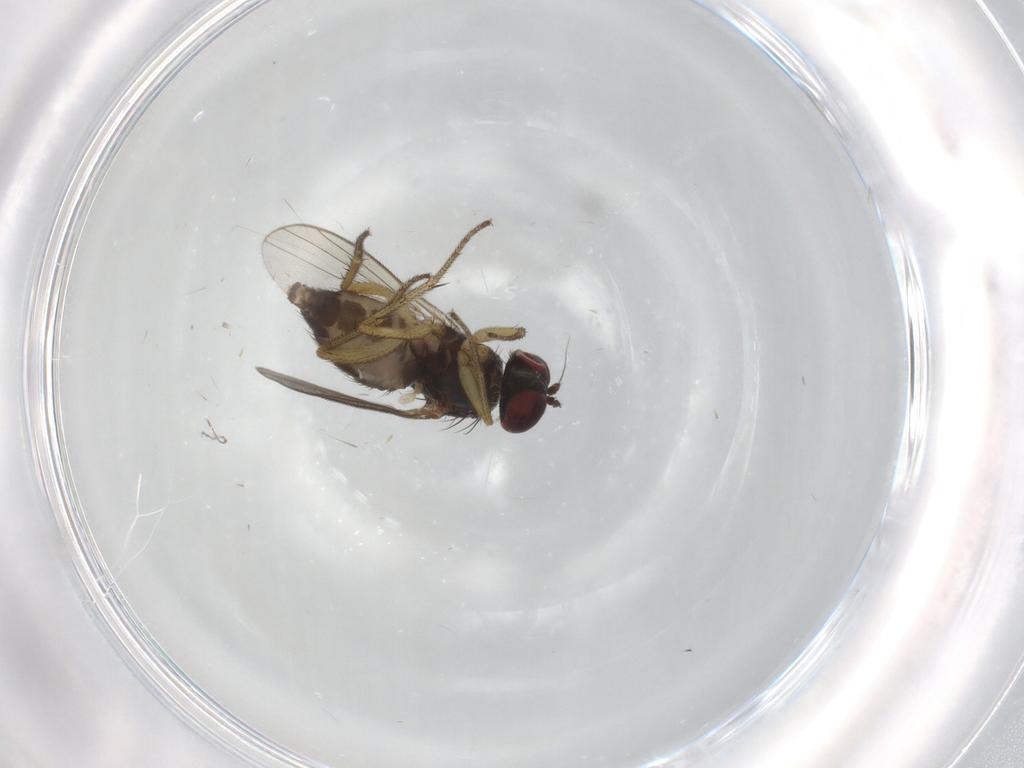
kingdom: Animalia
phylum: Arthropoda
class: Insecta
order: Diptera
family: Dolichopodidae
